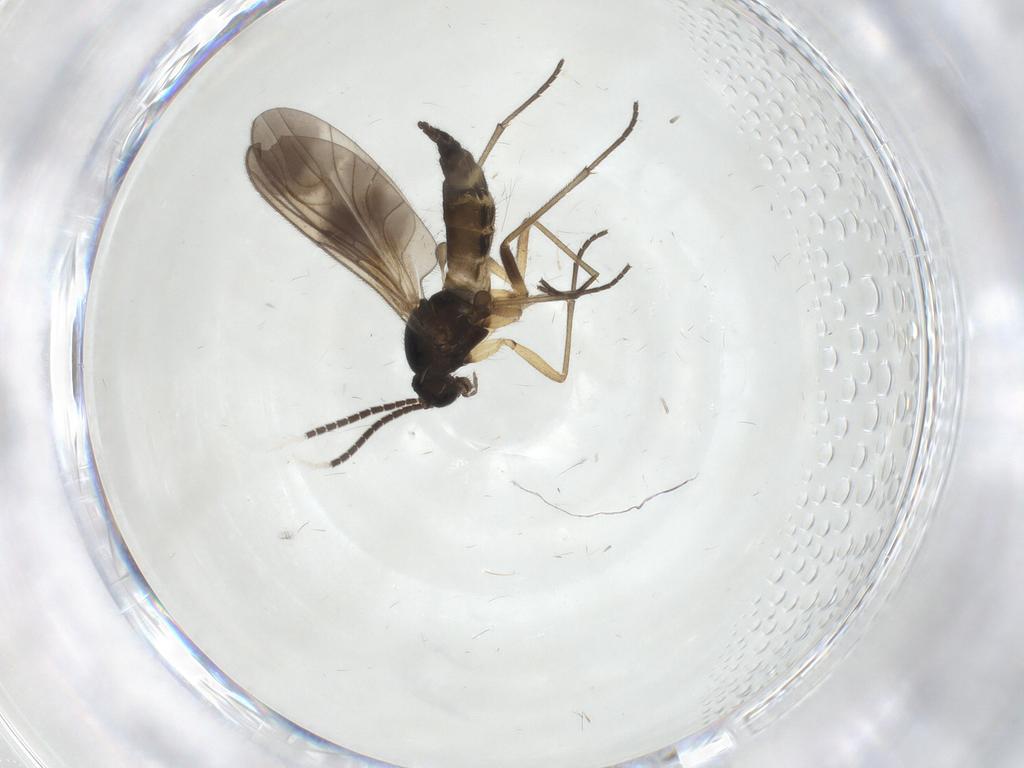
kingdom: Animalia
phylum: Arthropoda
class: Insecta
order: Diptera
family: Sciaridae
